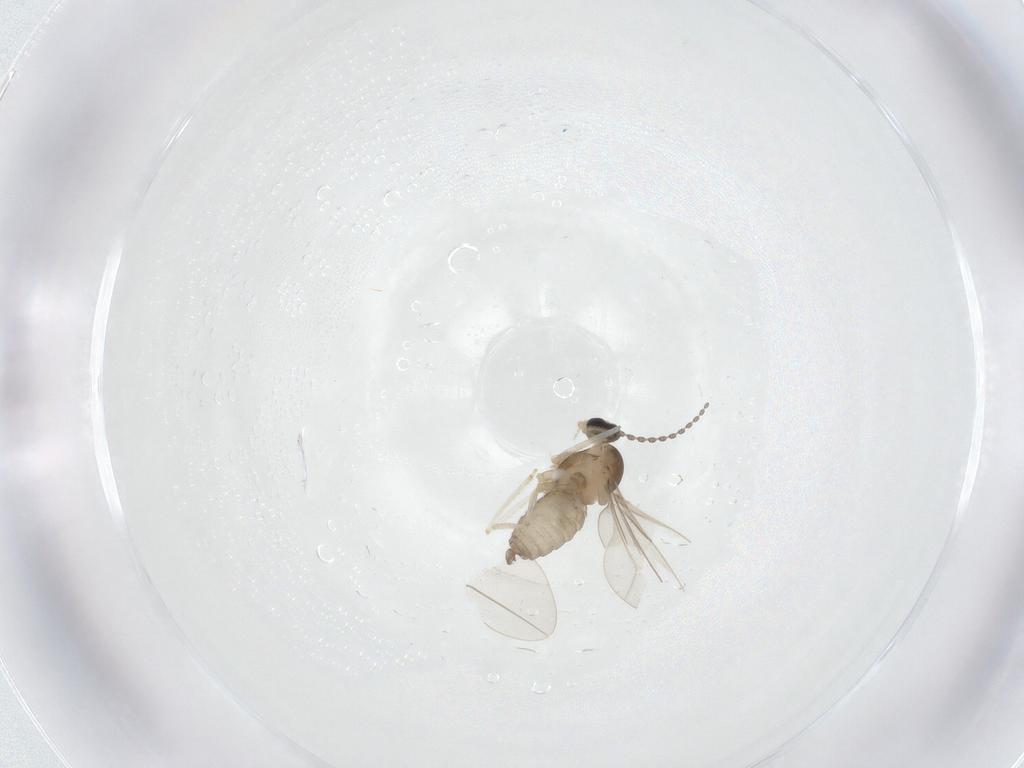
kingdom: Animalia
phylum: Arthropoda
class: Insecta
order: Diptera
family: Cecidomyiidae
